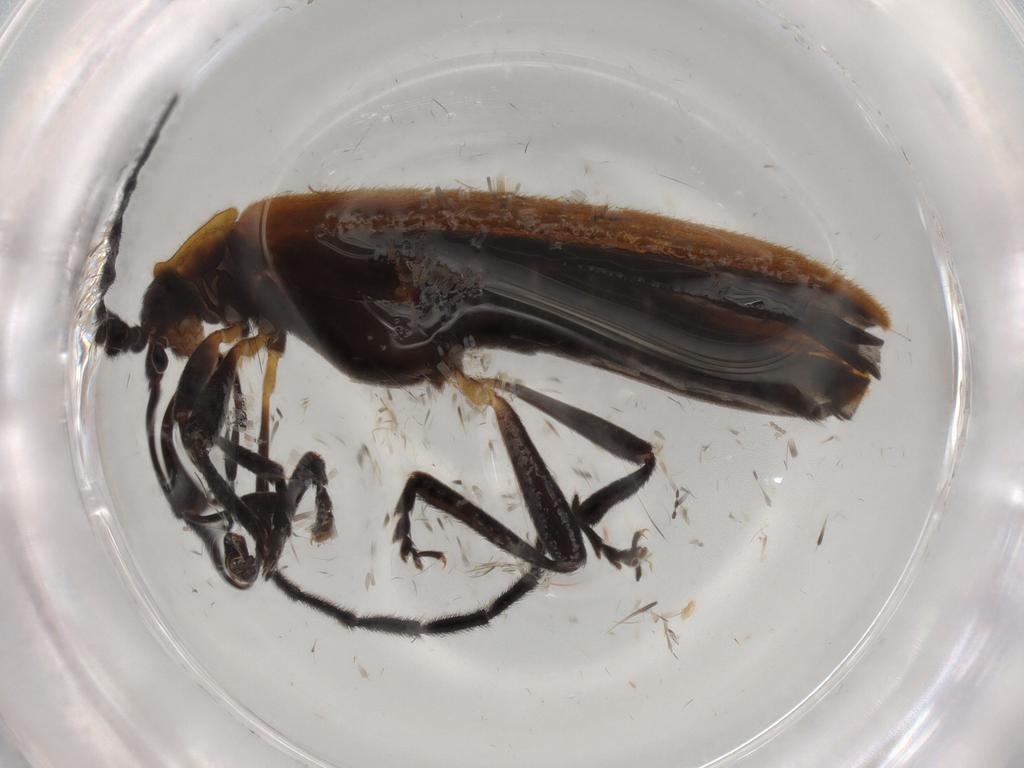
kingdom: Animalia
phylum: Arthropoda
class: Insecta
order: Coleoptera
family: Lycidae
